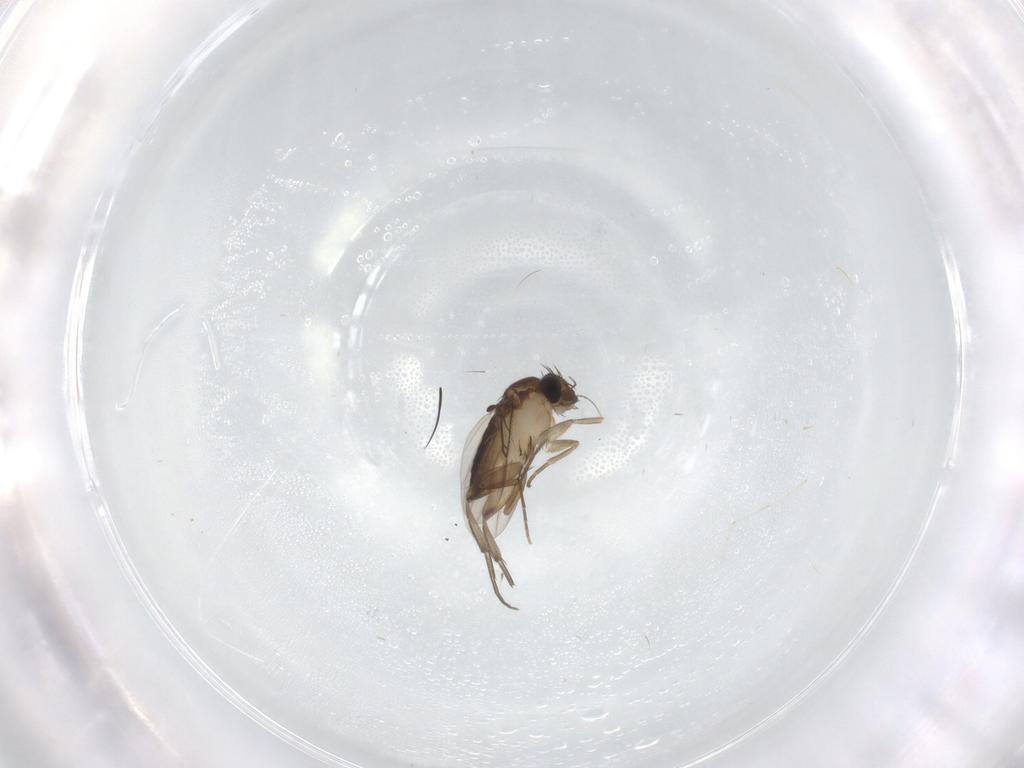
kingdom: Animalia
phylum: Arthropoda
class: Insecta
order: Diptera
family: Phoridae
